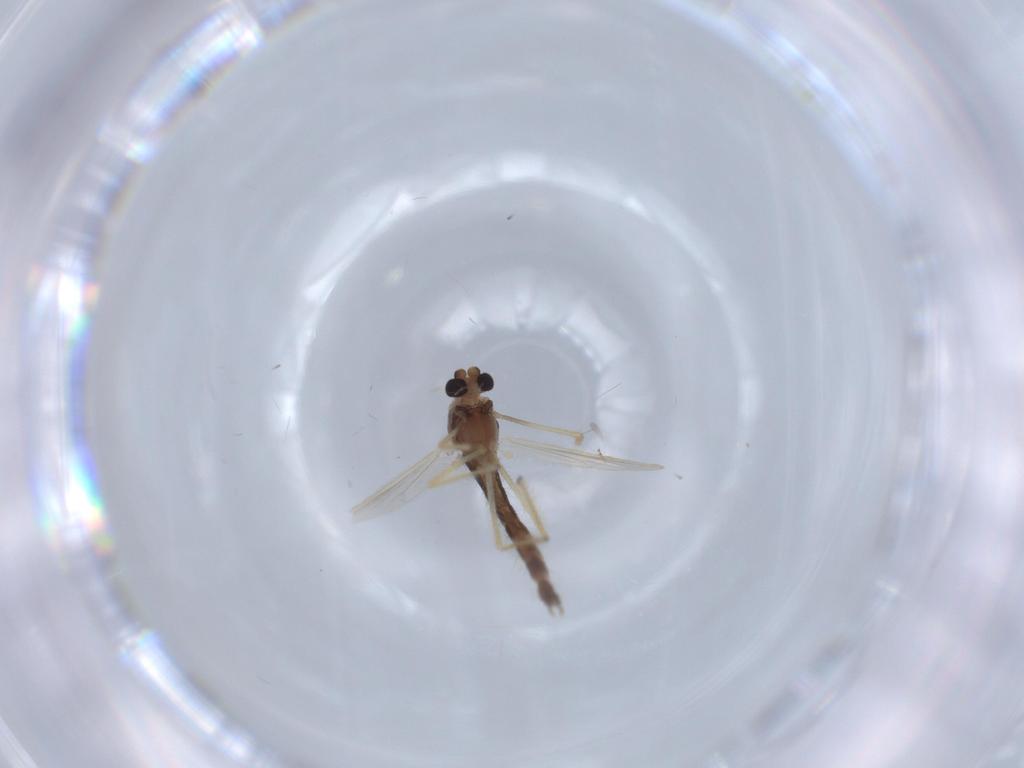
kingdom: Animalia
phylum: Arthropoda
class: Insecta
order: Diptera
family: Chironomidae
